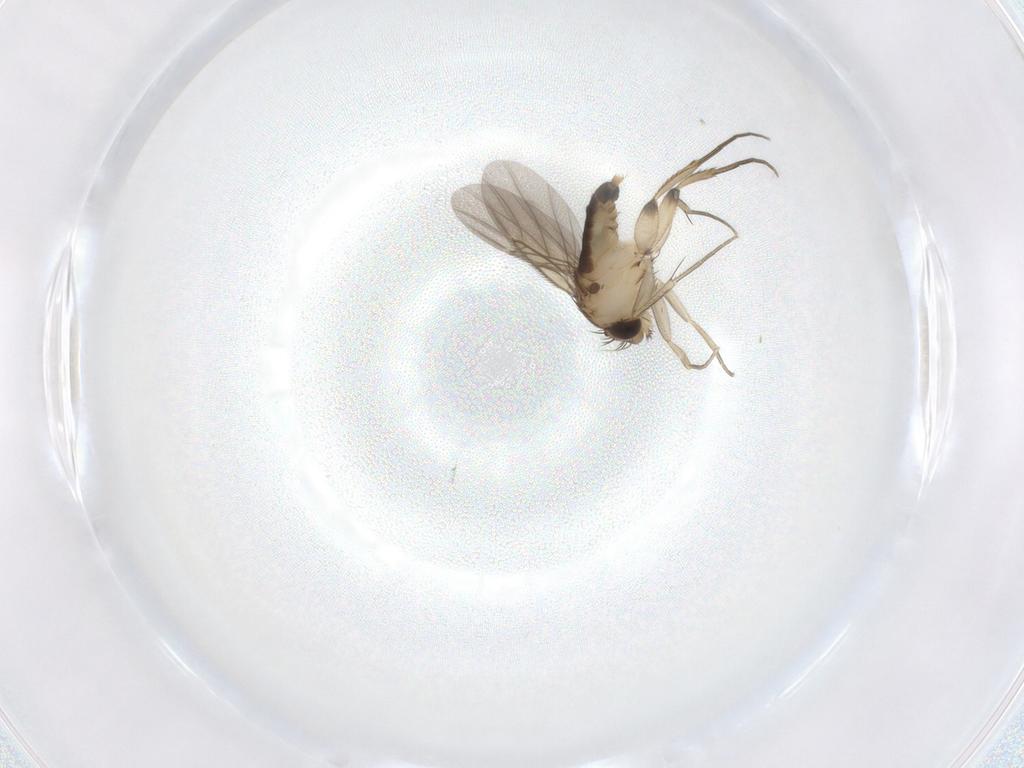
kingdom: Animalia
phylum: Arthropoda
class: Insecta
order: Diptera
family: Phoridae
